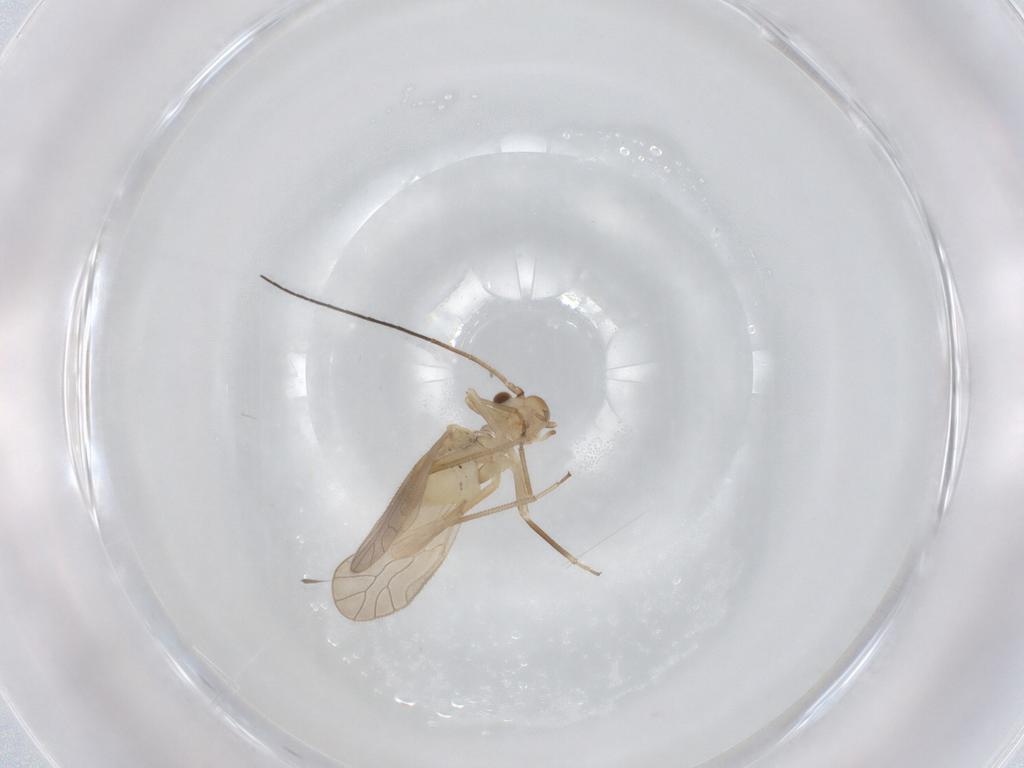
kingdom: Animalia
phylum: Arthropoda
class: Insecta
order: Psocodea
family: Caeciliusidae
